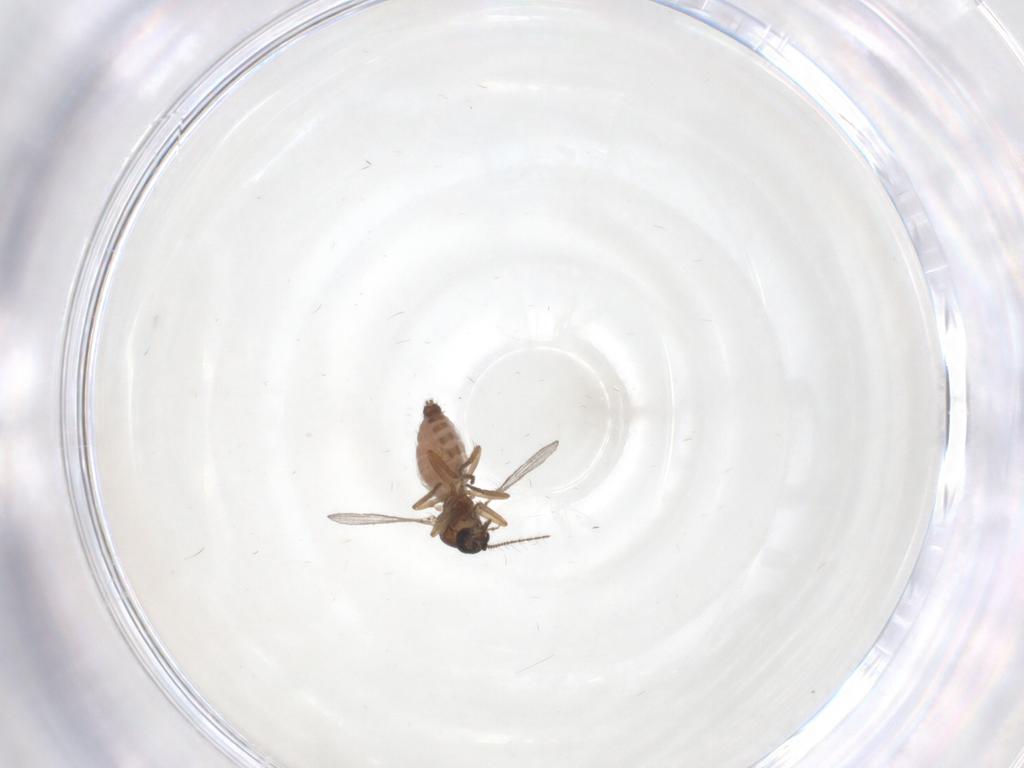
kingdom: Animalia
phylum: Arthropoda
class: Insecta
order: Diptera
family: Ceratopogonidae
